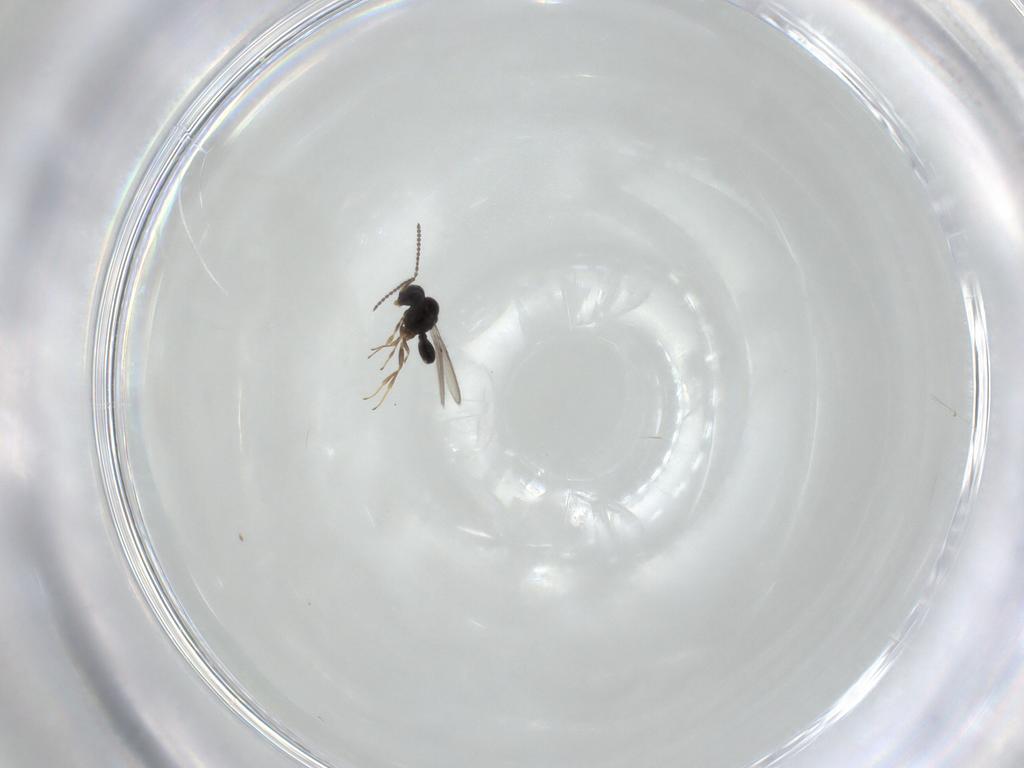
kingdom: Animalia
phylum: Arthropoda
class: Insecta
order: Hymenoptera
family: Scelionidae
